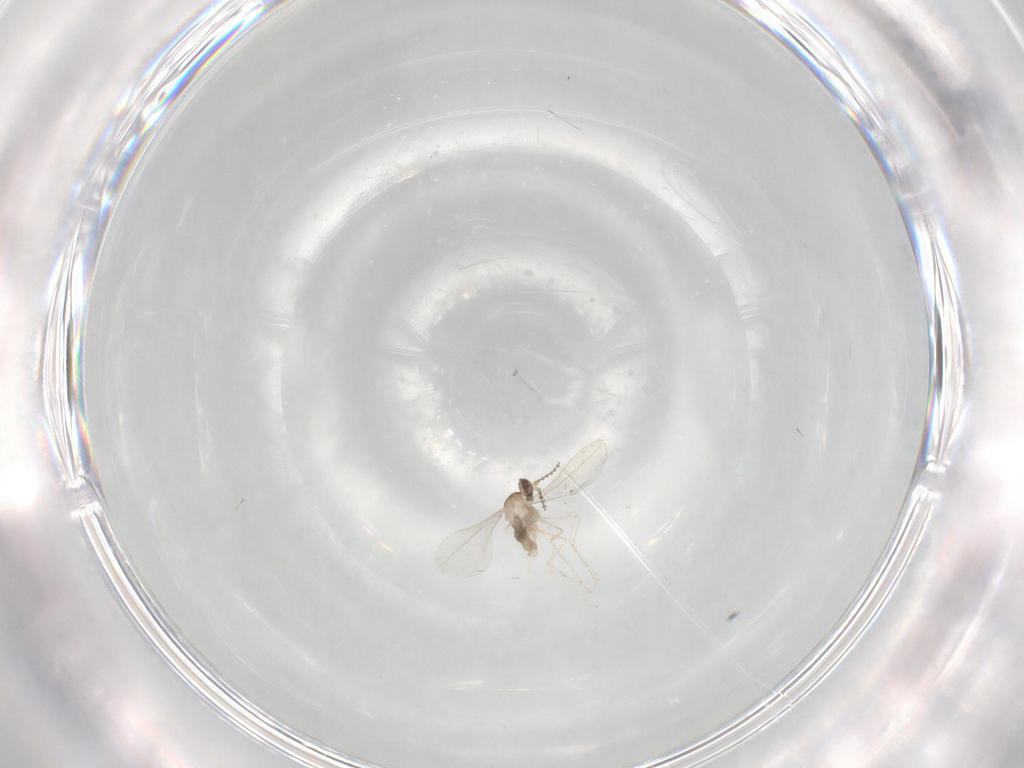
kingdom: Animalia
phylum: Arthropoda
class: Insecta
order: Diptera
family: Cecidomyiidae
